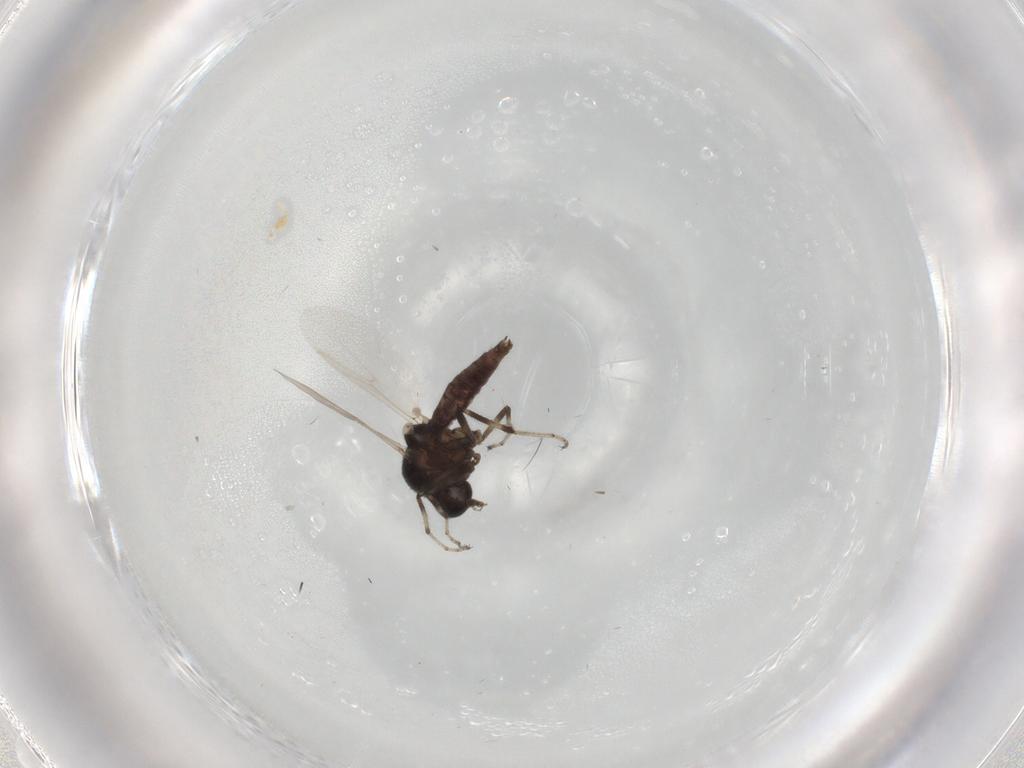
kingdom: Animalia
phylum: Arthropoda
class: Insecta
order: Diptera
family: Ceratopogonidae
